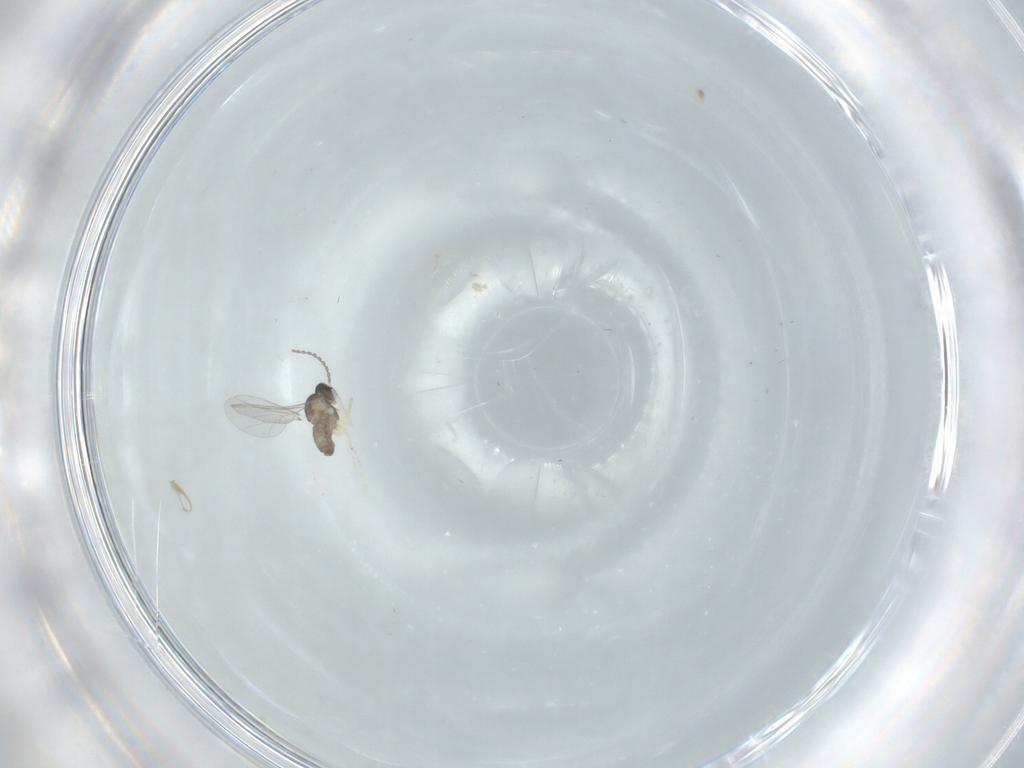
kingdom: Animalia
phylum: Arthropoda
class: Insecta
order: Diptera
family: Cecidomyiidae
